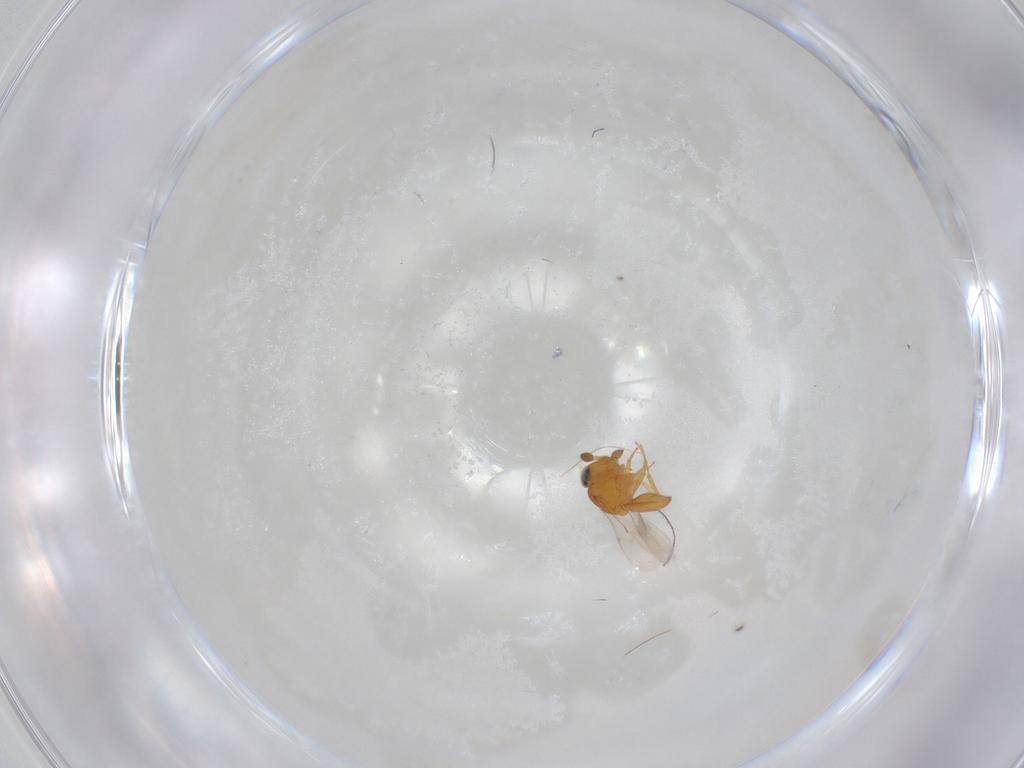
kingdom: Animalia
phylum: Arthropoda
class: Insecta
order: Hymenoptera
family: Scelionidae
